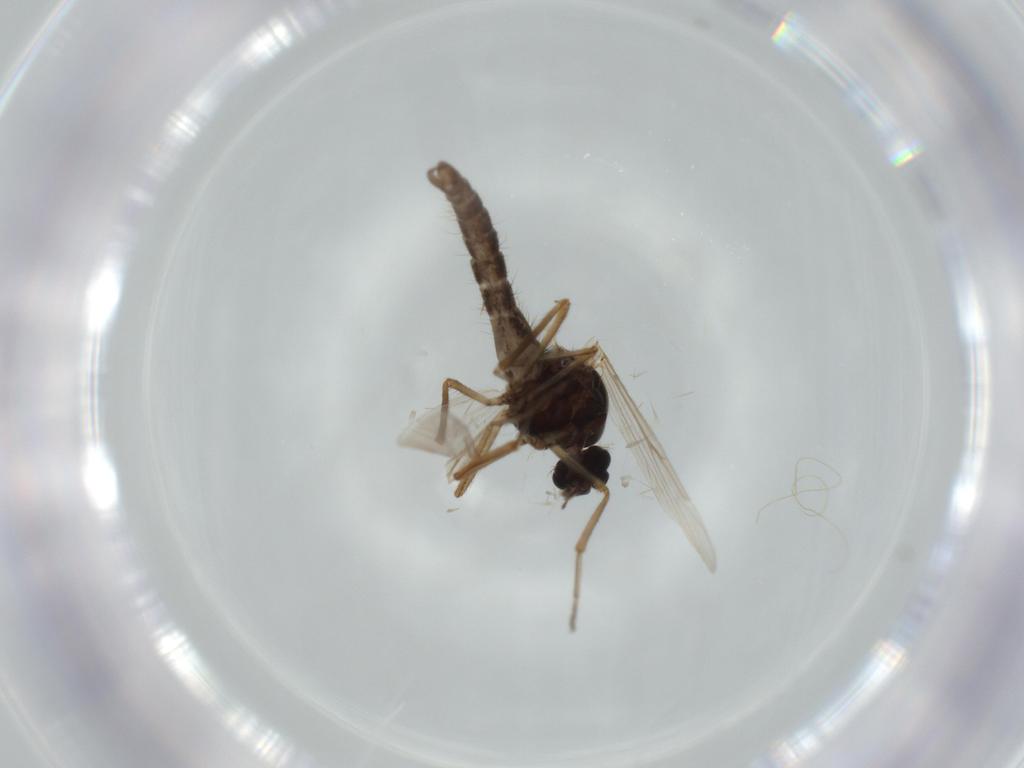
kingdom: Animalia
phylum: Arthropoda
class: Insecta
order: Diptera
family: Ceratopogonidae
